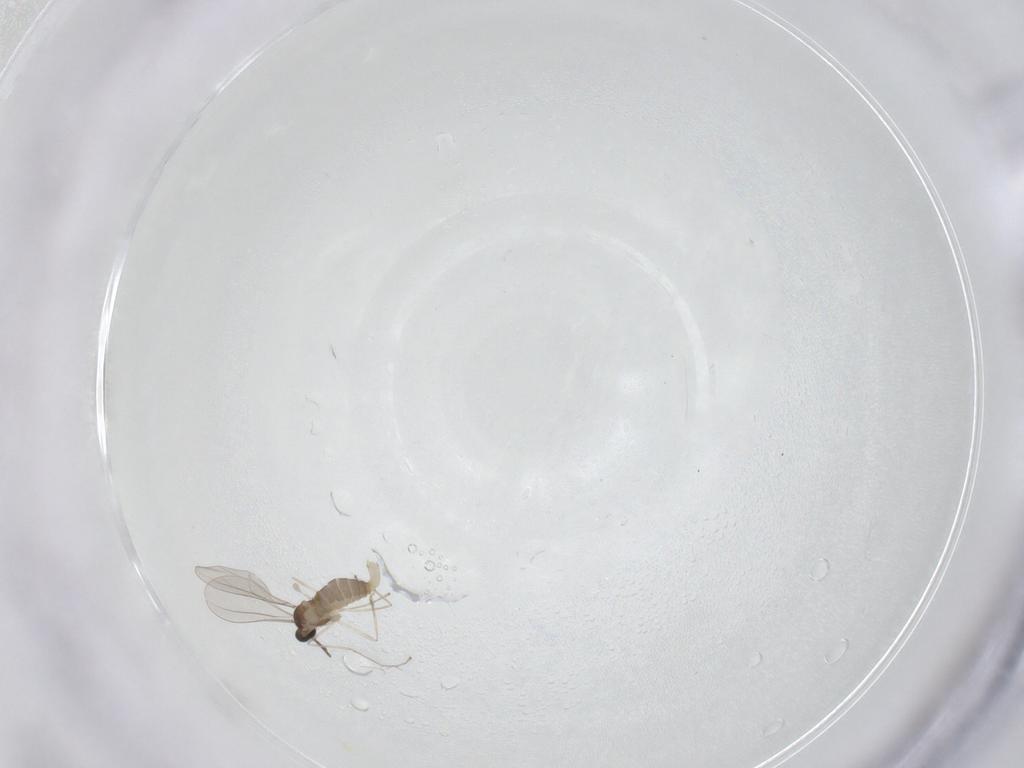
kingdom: Animalia
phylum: Arthropoda
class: Insecta
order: Diptera
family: Cecidomyiidae
